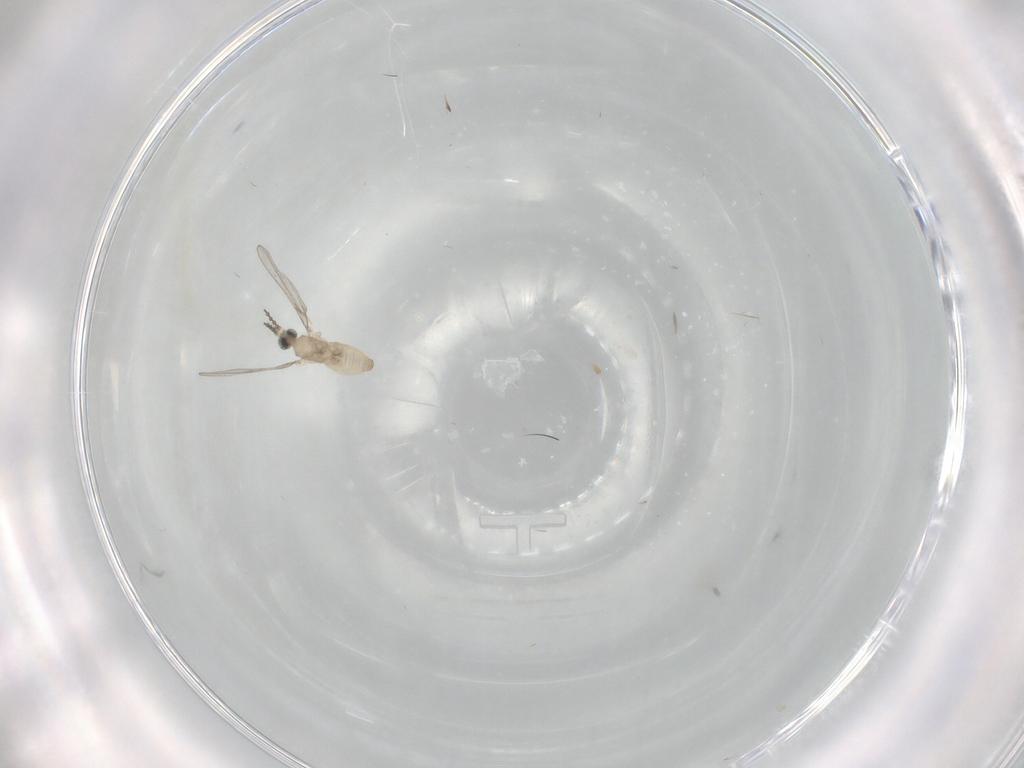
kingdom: Animalia
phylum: Arthropoda
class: Insecta
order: Diptera
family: Cecidomyiidae
